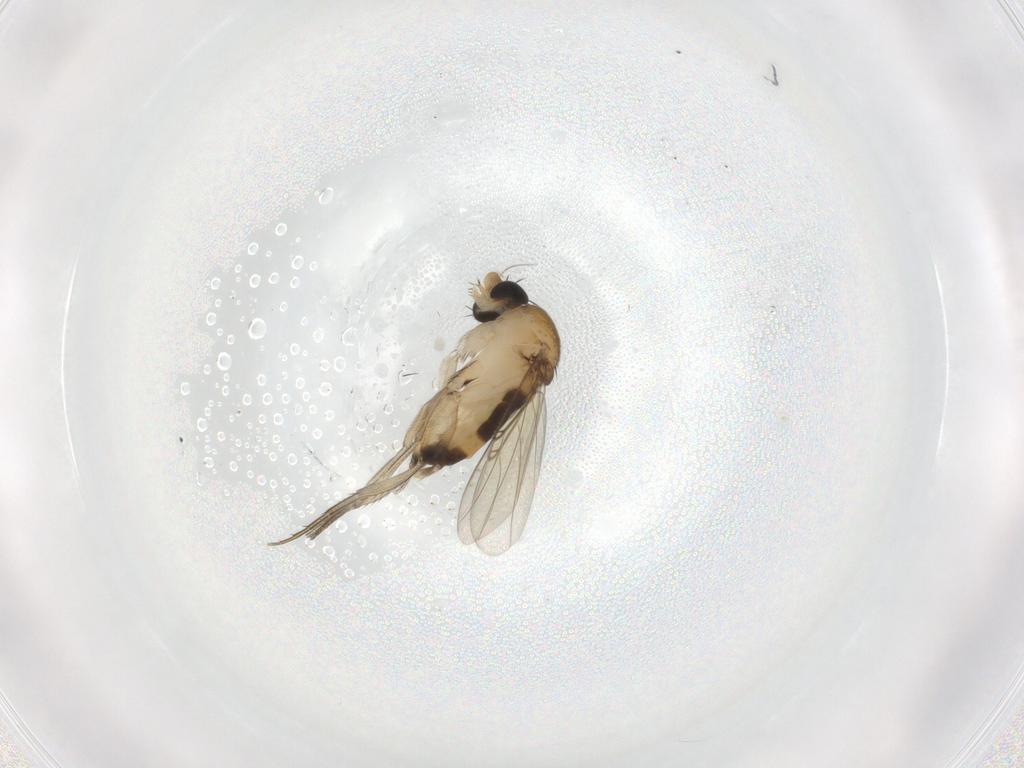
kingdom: Animalia
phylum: Arthropoda
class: Insecta
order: Diptera
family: Phoridae
